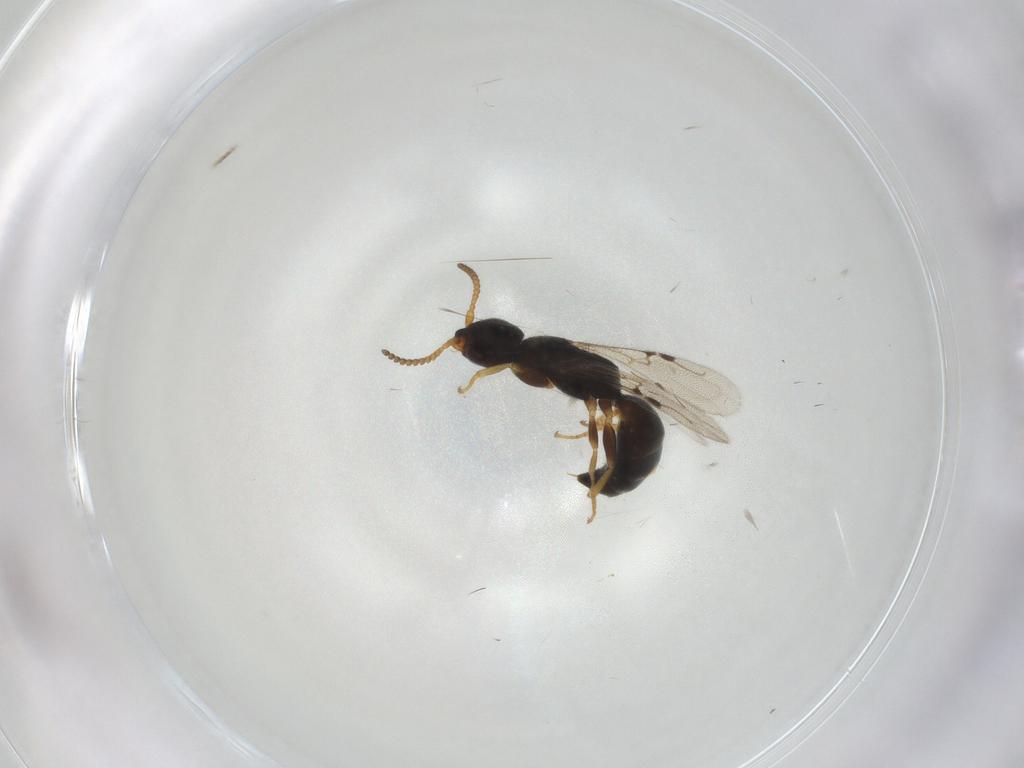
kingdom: Animalia
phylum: Arthropoda
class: Insecta
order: Hymenoptera
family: Bethylidae
